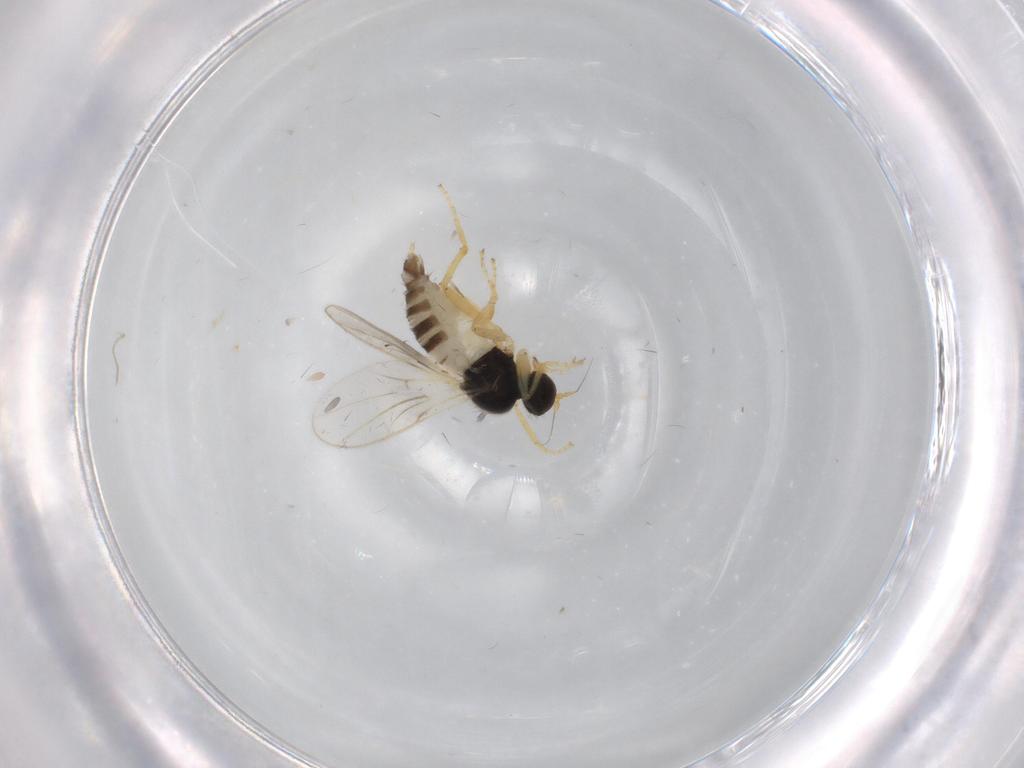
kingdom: Animalia
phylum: Arthropoda
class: Insecta
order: Diptera
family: Hybotidae
